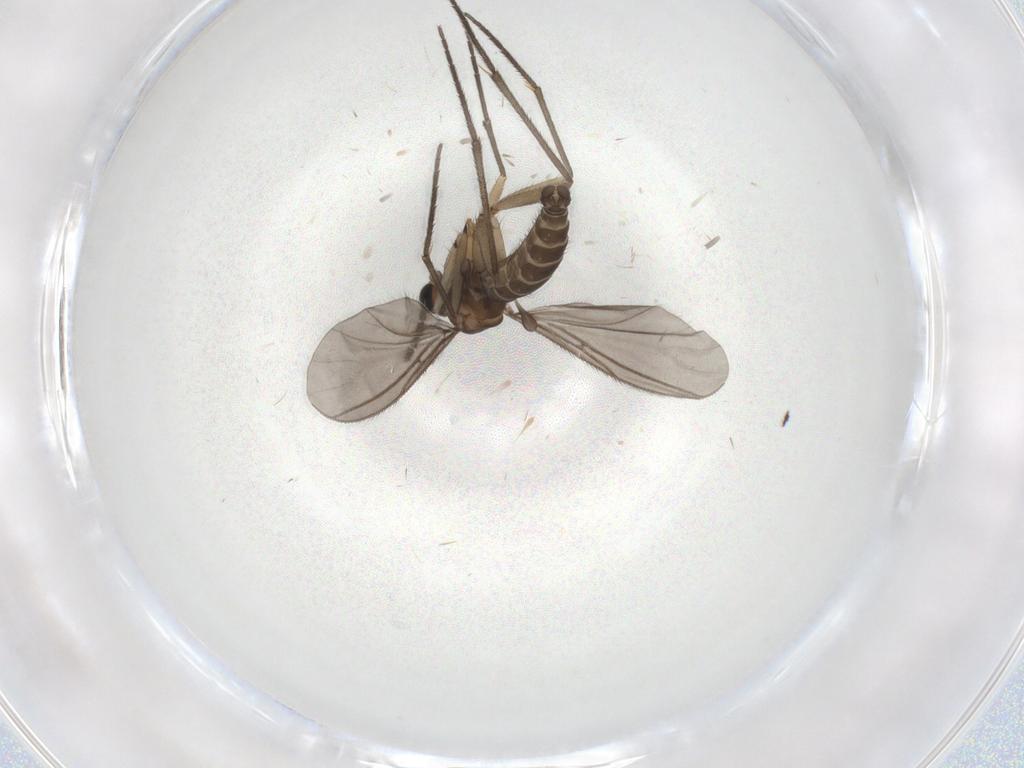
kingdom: Animalia
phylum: Arthropoda
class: Insecta
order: Diptera
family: Sciaridae
